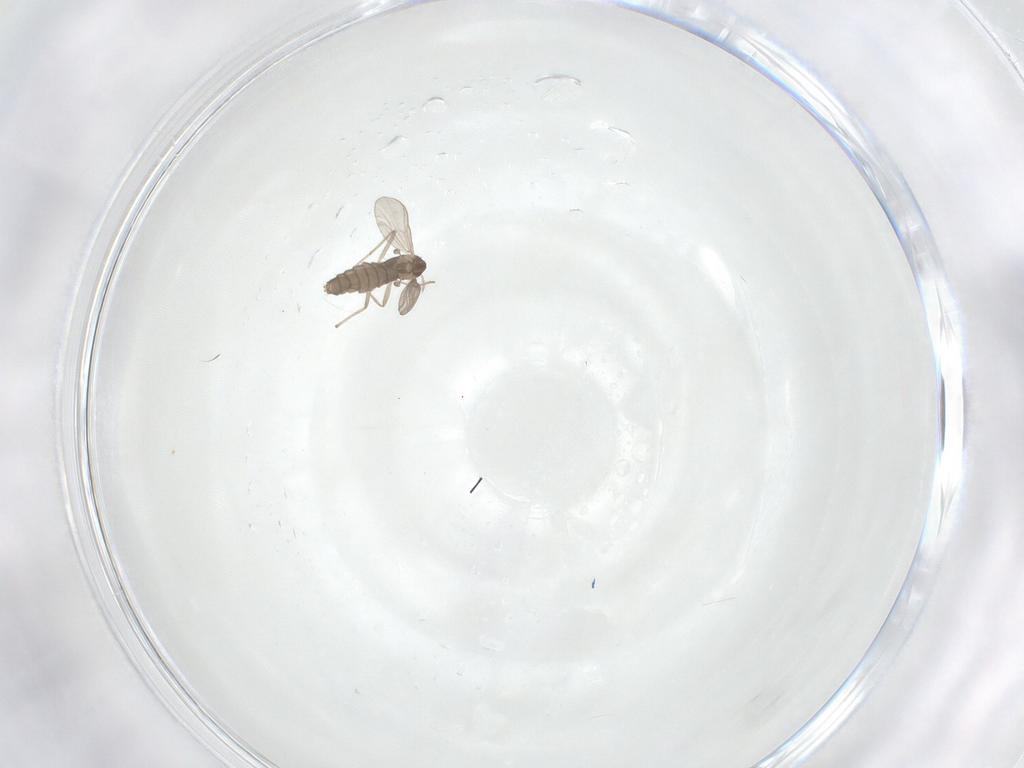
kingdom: Animalia
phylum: Arthropoda
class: Insecta
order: Diptera
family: Chironomidae
